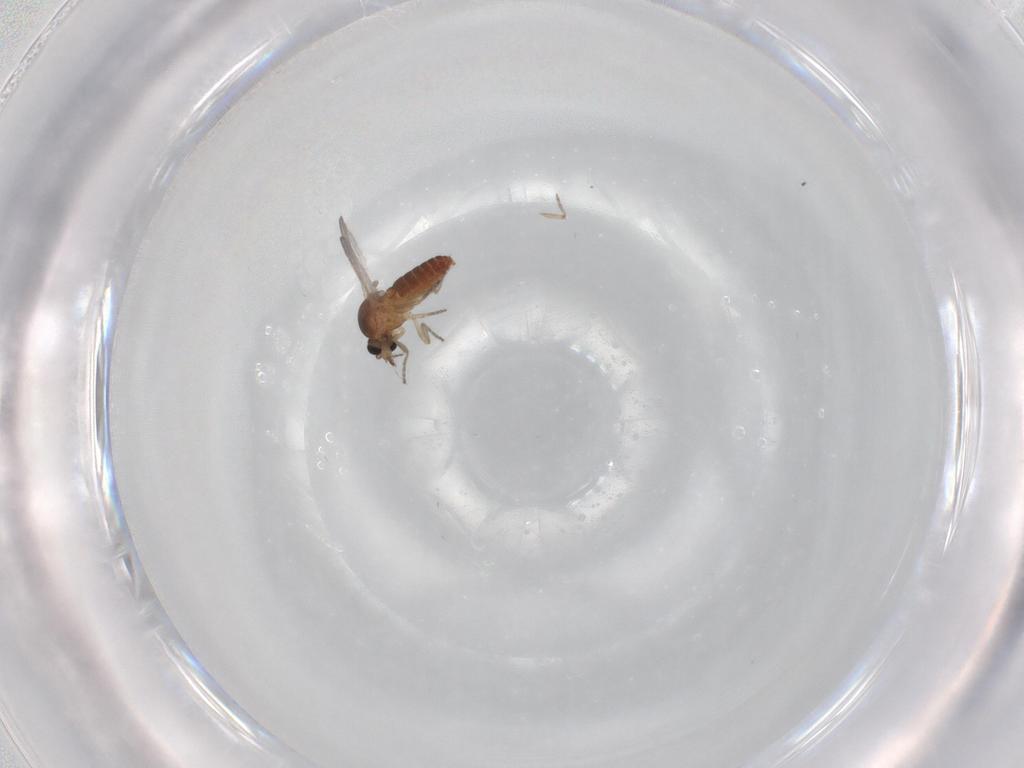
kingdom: Animalia
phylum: Arthropoda
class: Insecta
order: Diptera
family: Ceratopogonidae
